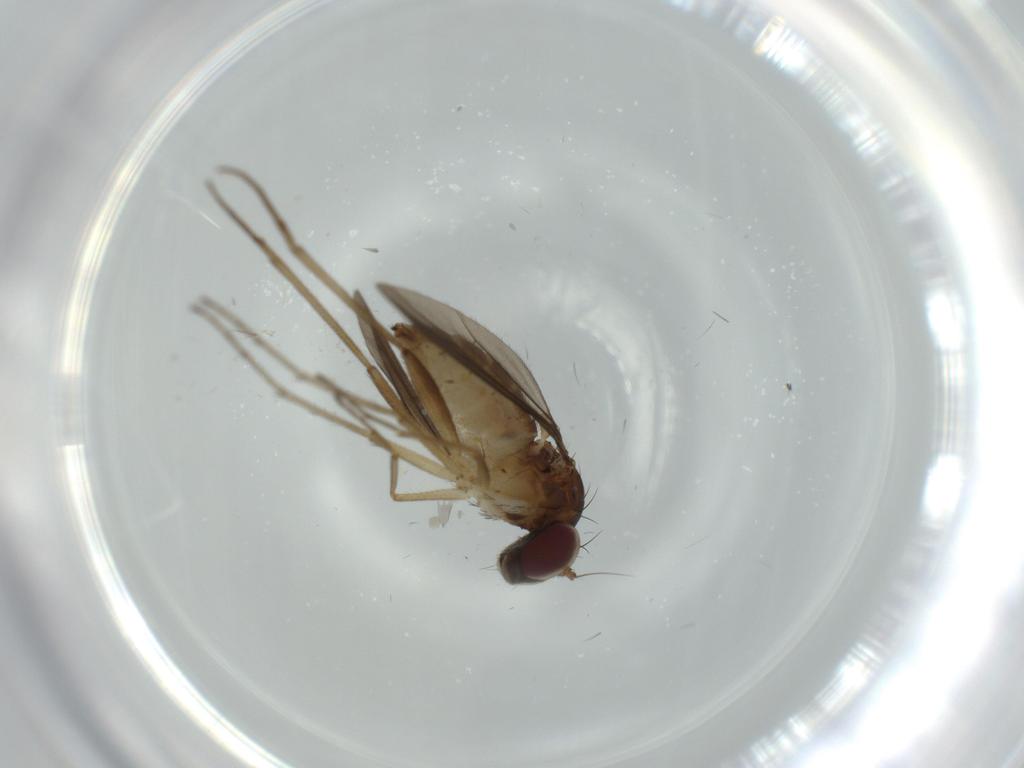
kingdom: Animalia
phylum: Arthropoda
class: Insecta
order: Diptera
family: Dolichopodidae
